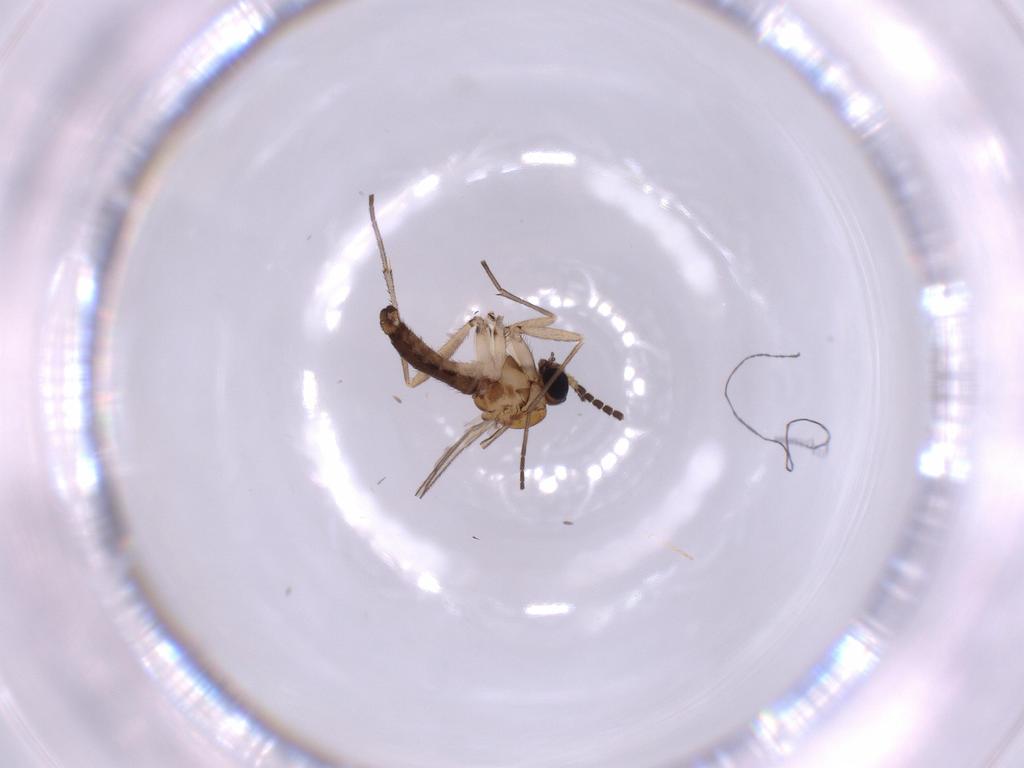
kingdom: Animalia
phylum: Arthropoda
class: Insecta
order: Diptera
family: Sciaridae
